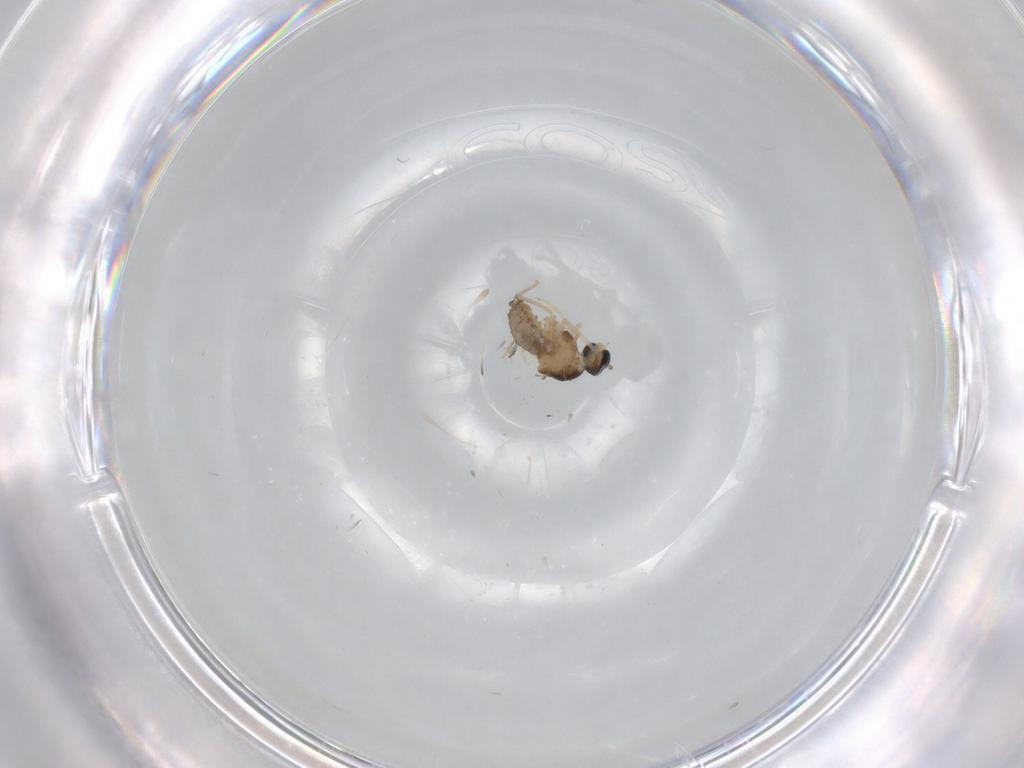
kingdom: Animalia
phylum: Arthropoda
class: Insecta
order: Diptera
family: Cecidomyiidae
